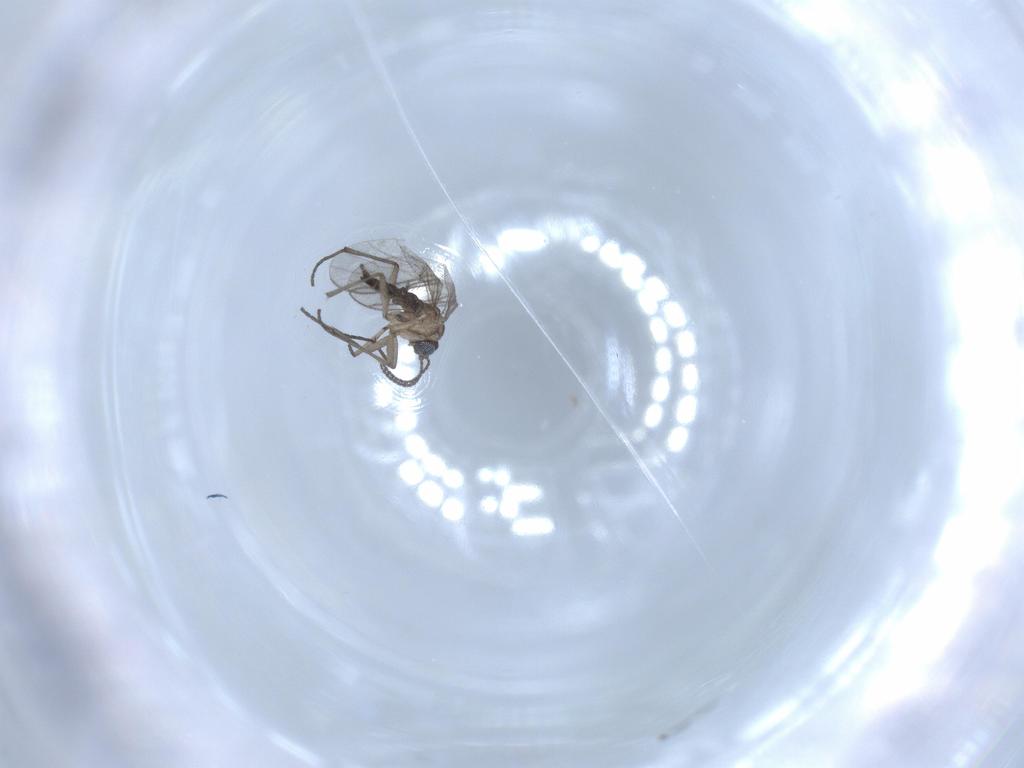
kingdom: Animalia
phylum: Arthropoda
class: Insecta
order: Diptera
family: Sciaridae
